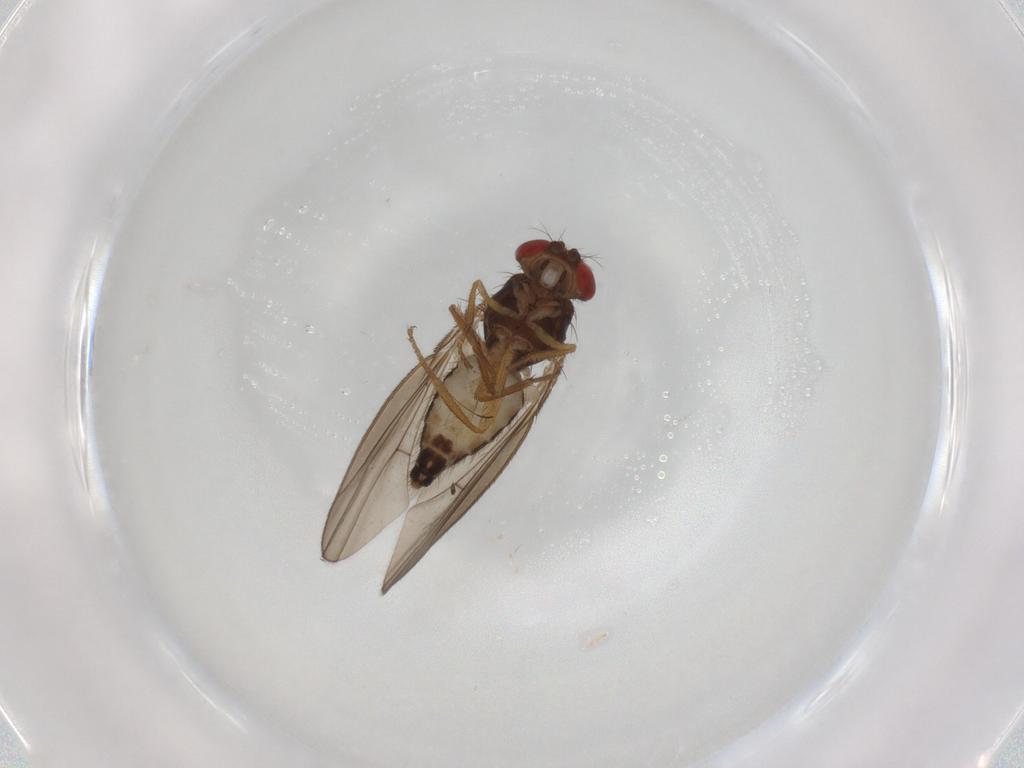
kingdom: Animalia
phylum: Arthropoda
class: Insecta
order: Diptera
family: Drosophilidae
